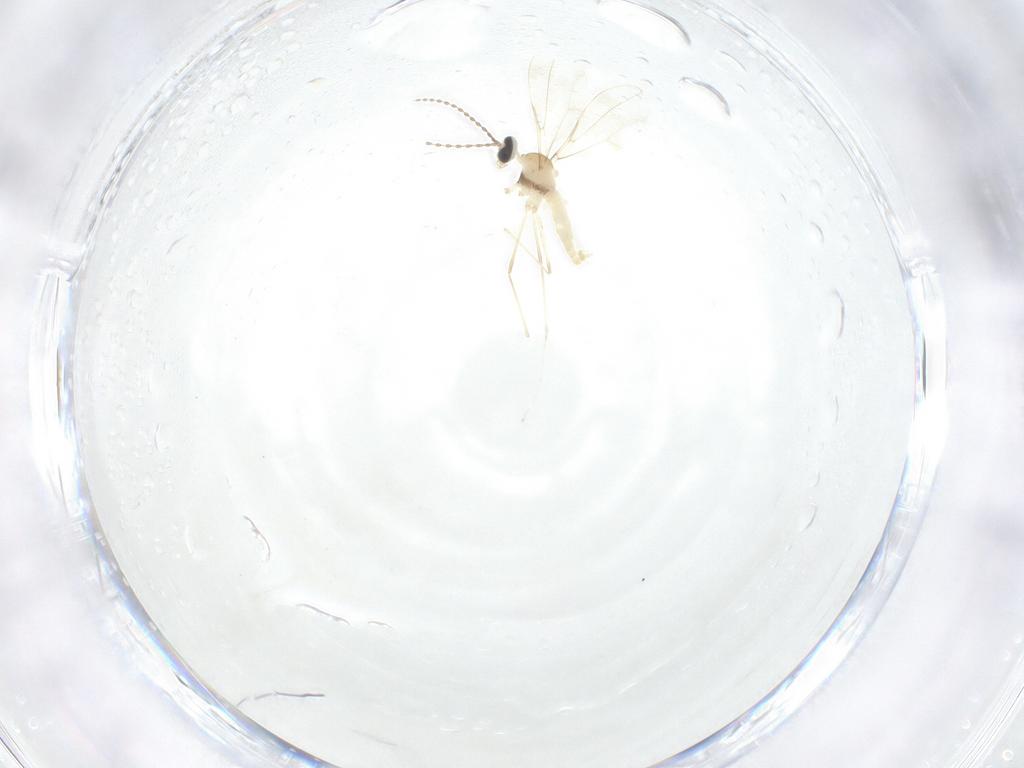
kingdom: Animalia
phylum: Arthropoda
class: Insecta
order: Diptera
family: Cecidomyiidae
